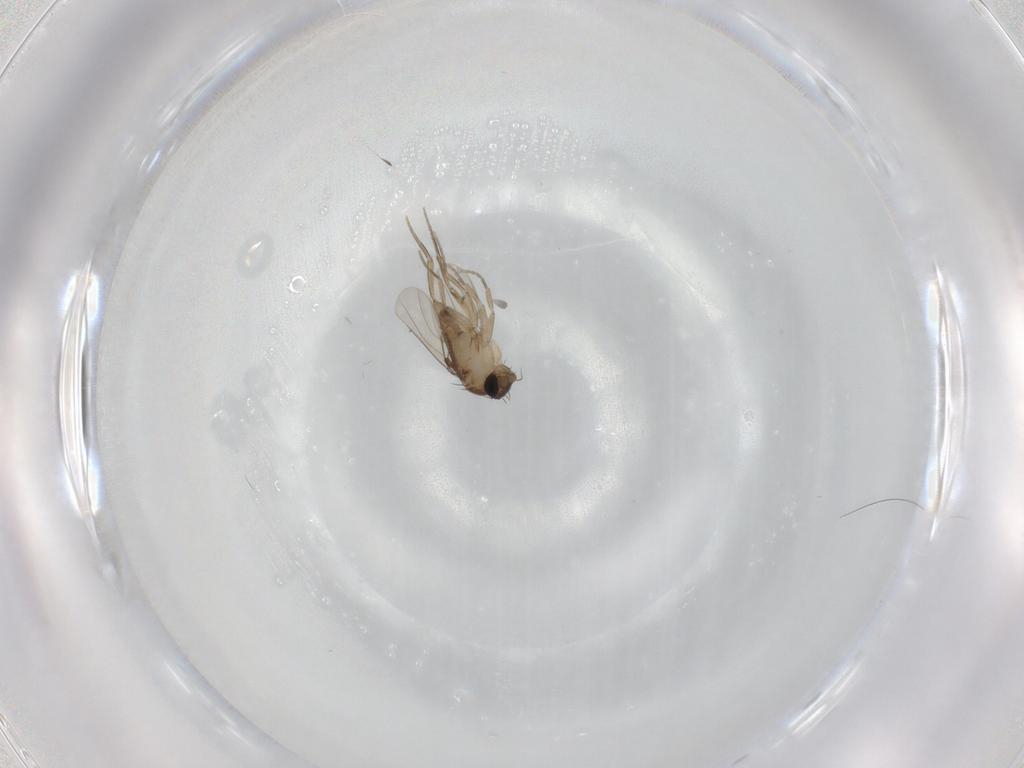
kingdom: Animalia
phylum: Arthropoda
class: Insecta
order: Diptera
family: Phoridae
